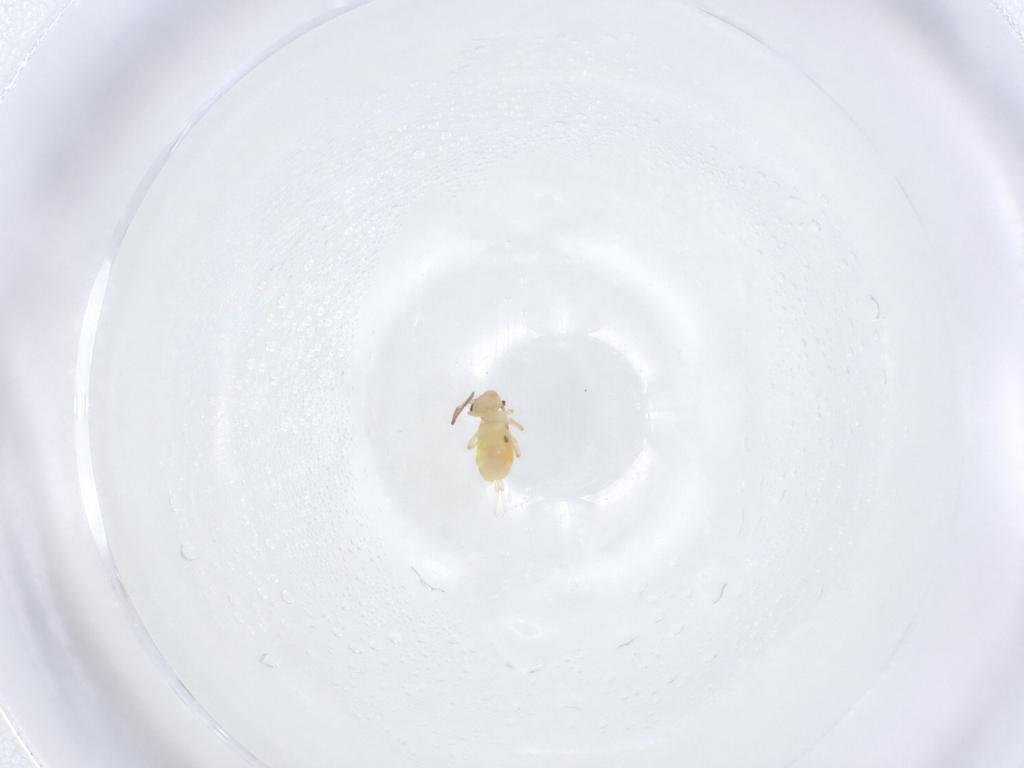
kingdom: Animalia
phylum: Arthropoda
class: Collembola
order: Symphypleona
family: Bourletiellidae
